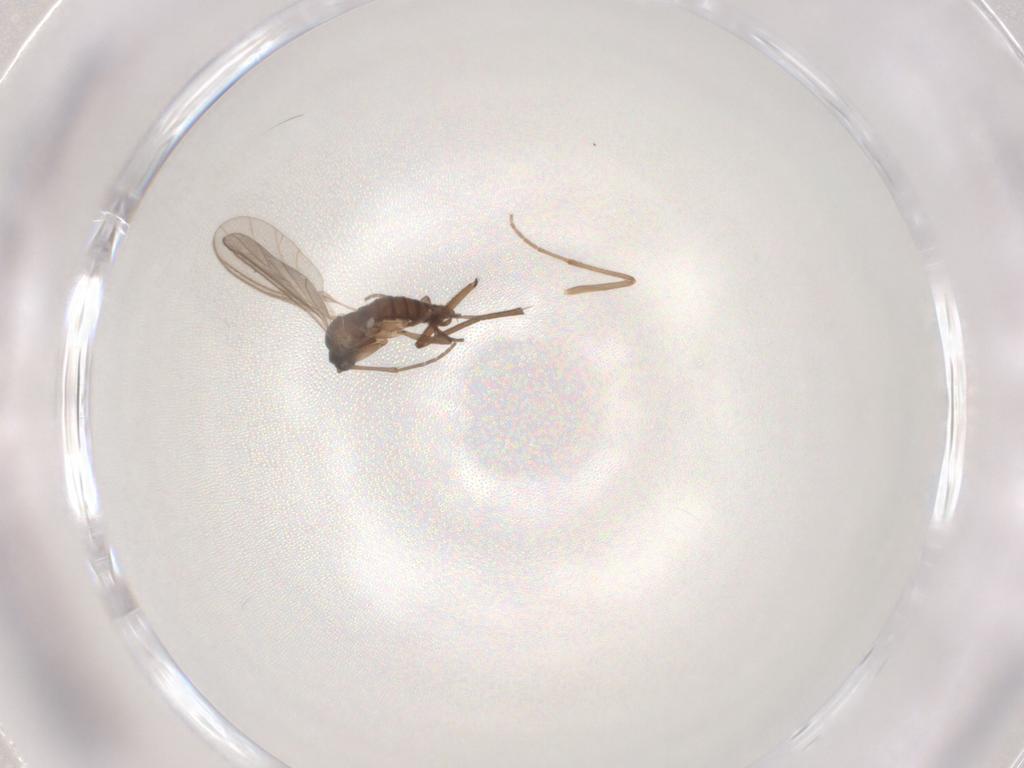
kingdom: Animalia
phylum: Arthropoda
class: Insecta
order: Diptera
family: Sciaridae
